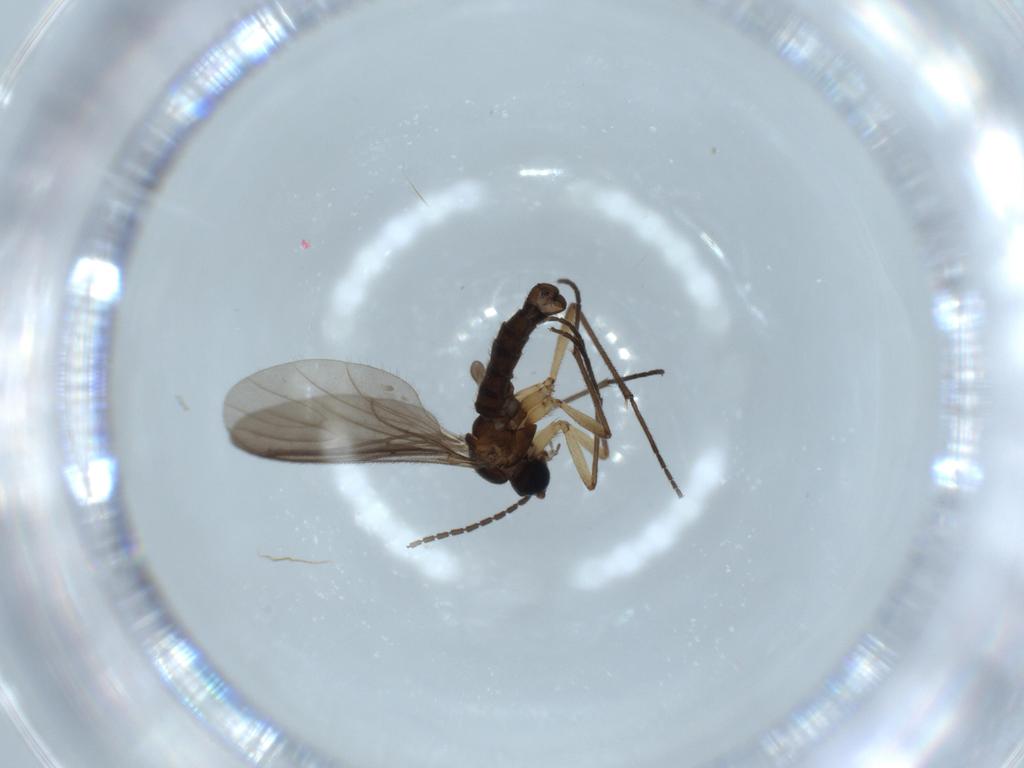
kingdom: Animalia
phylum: Arthropoda
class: Insecta
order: Diptera
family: Sciaridae
